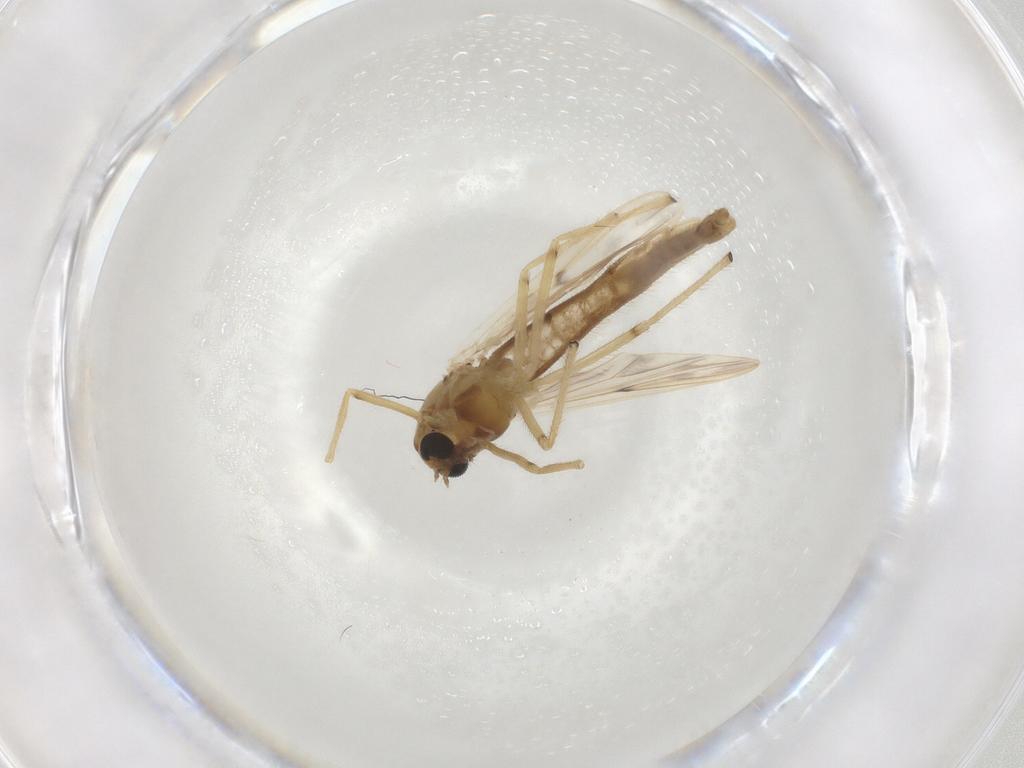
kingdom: Animalia
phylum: Arthropoda
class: Insecta
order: Diptera
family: Chironomidae
